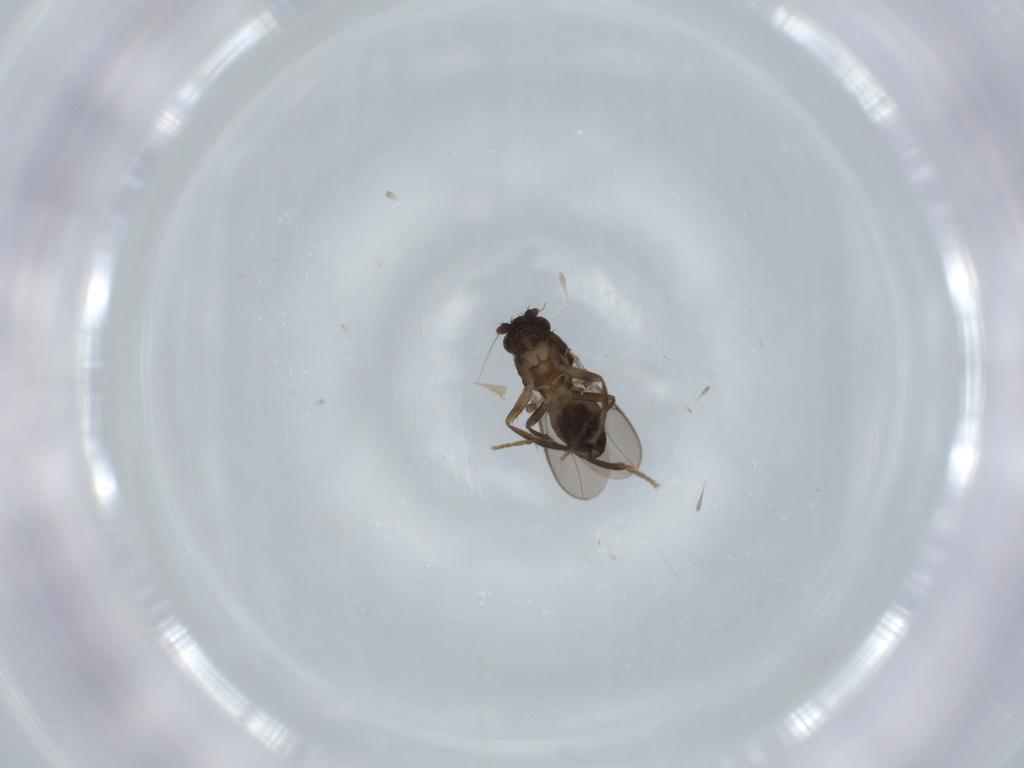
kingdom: Animalia
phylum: Arthropoda
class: Insecta
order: Diptera
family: Sphaeroceridae
